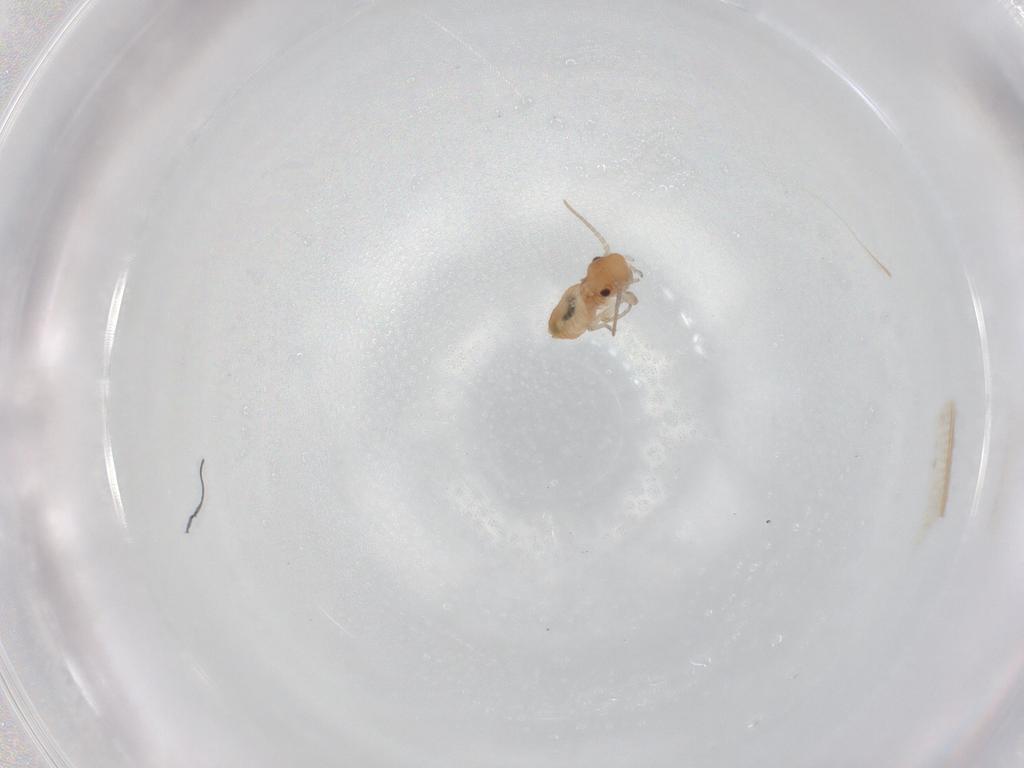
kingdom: Animalia
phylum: Arthropoda
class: Insecta
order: Psocodea
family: Caeciliusidae
